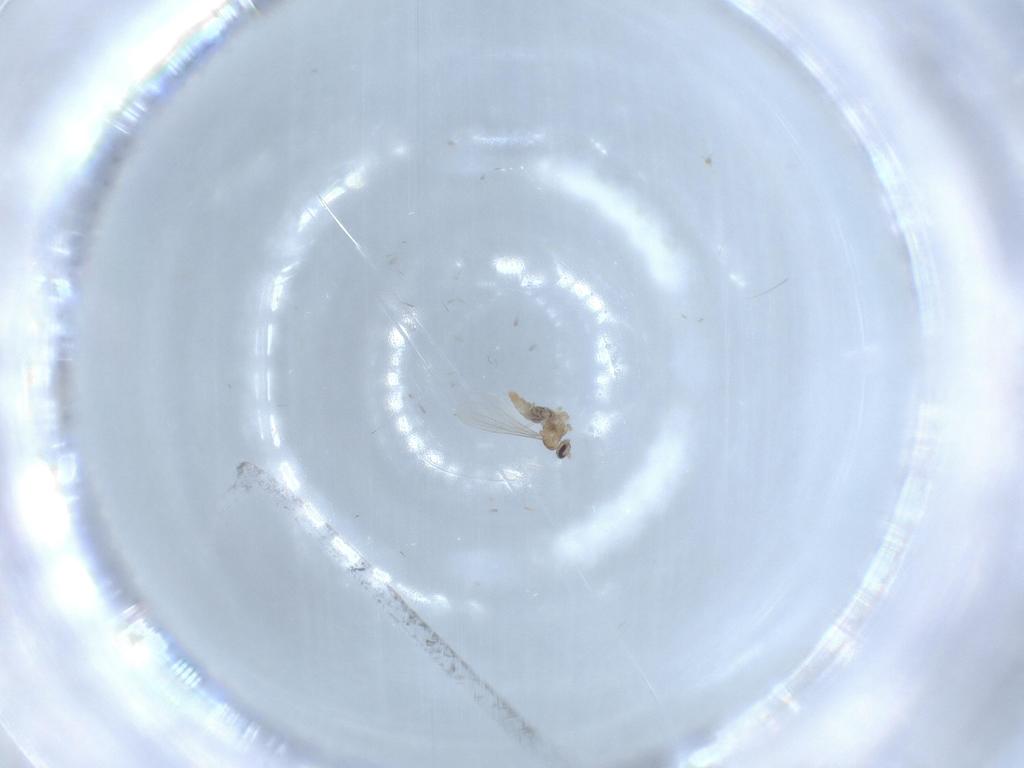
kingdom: Animalia
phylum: Arthropoda
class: Insecta
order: Diptera
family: Cecidomyiidae
